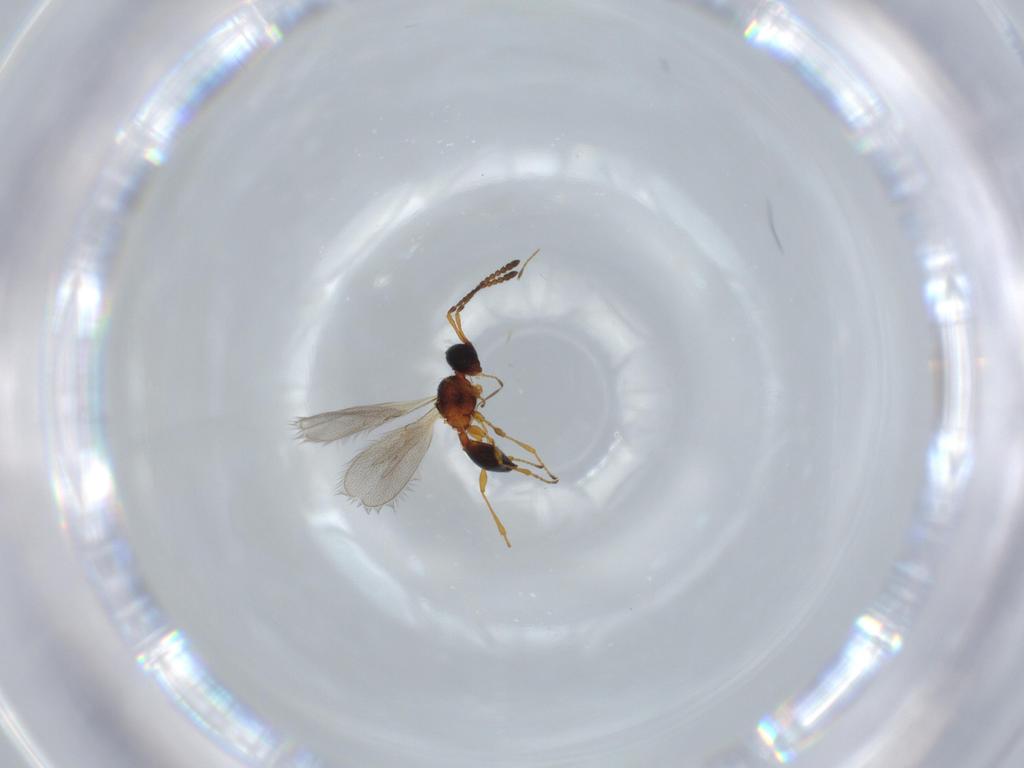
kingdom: Animalia
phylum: Arthropoda
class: Insecta
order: Hymenoptera
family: Diapriidae
